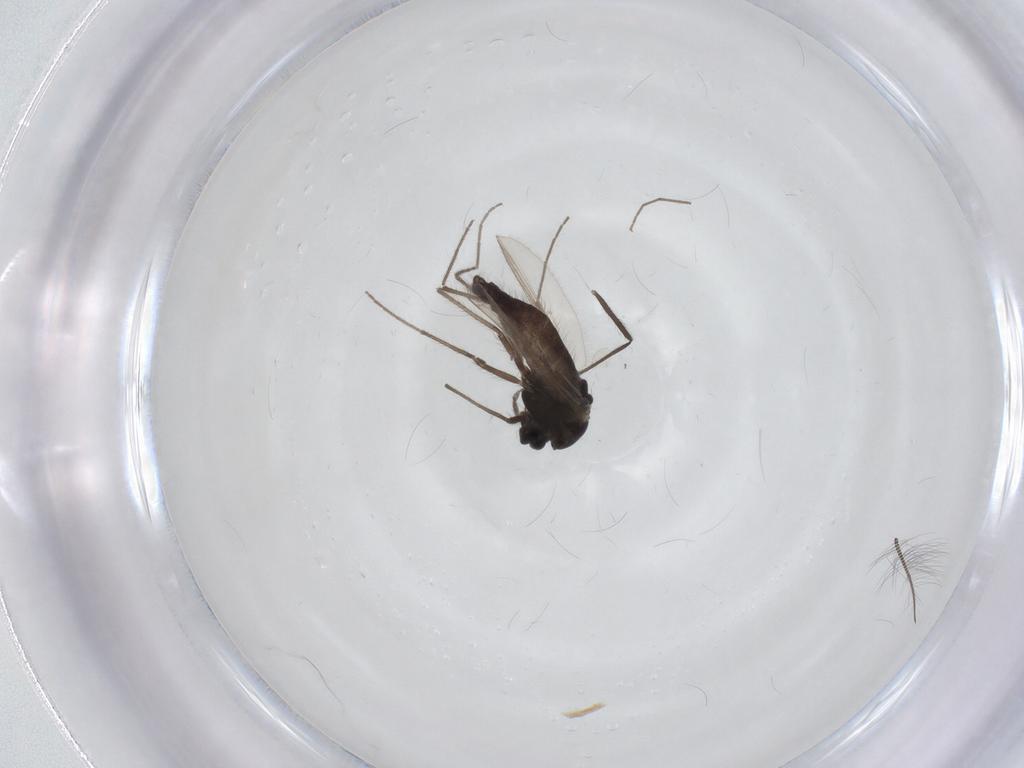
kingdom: Animalia
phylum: Arthropoda
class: Insecta
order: Diptera
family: Chironomidae
